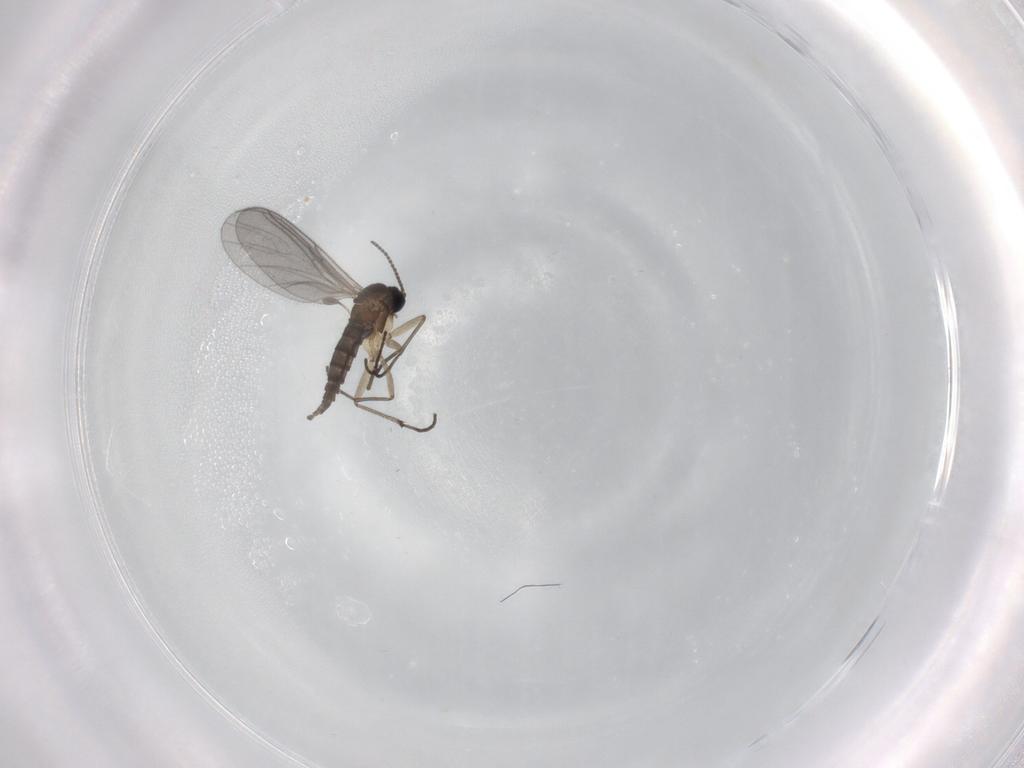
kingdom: Animalia
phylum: Arthropoda
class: Insecta
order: Diptera
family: Sciaridae
